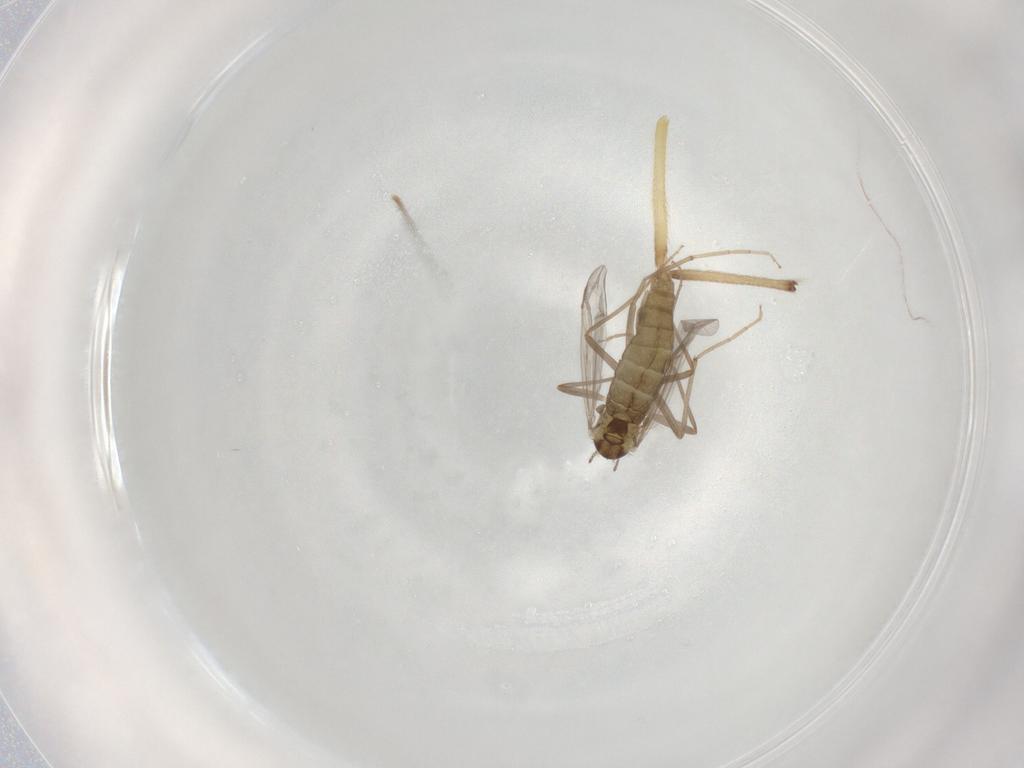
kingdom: Animalia
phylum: Arthropoda
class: Insecta
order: Diptera
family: Chironomidae
